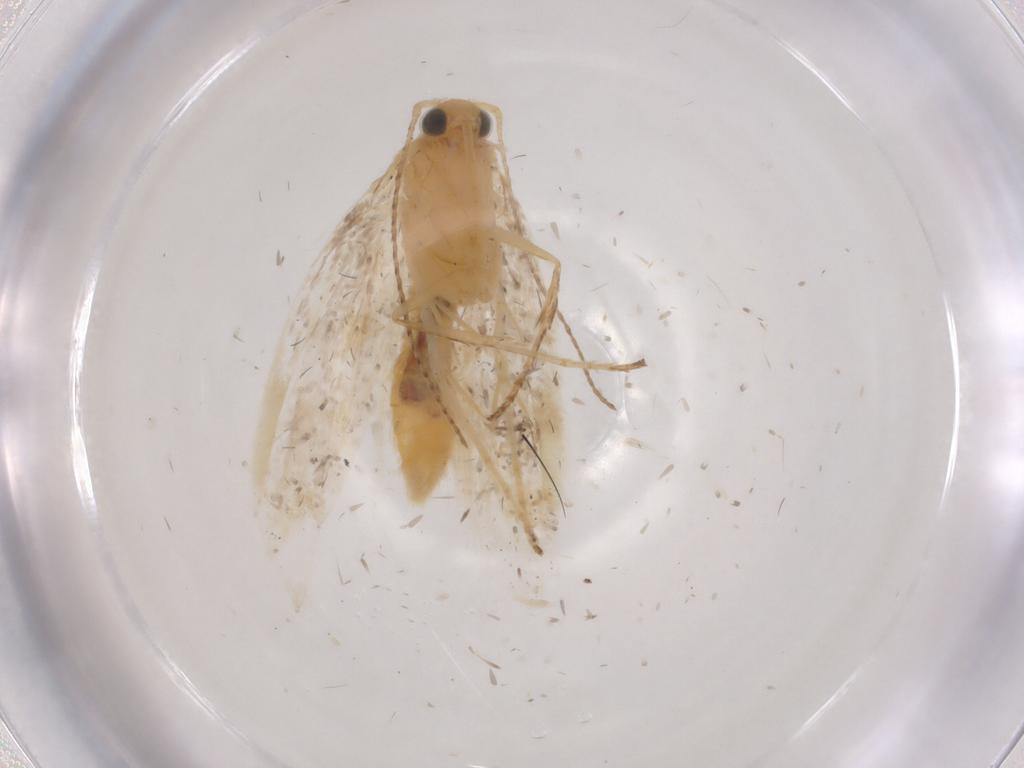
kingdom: Animalia
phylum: Arthropoda
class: Insecta
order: Lepidoptera
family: Argyresthiidae
